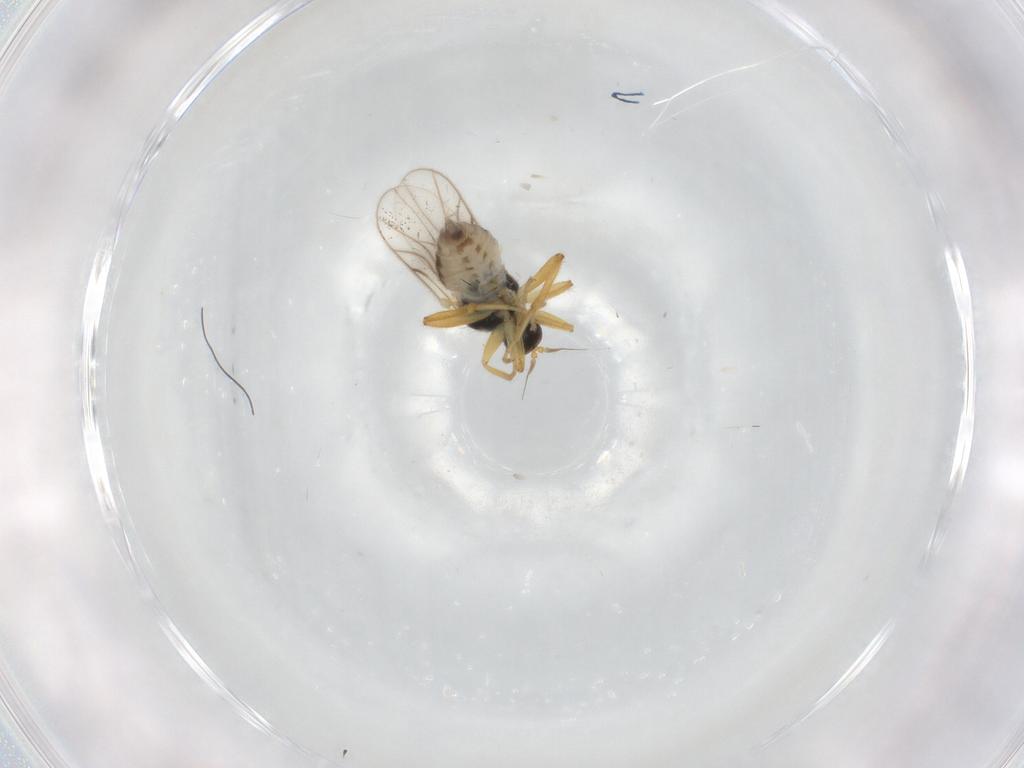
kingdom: Animalia
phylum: Arthropoda
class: Insecta
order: Diptera
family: Hybotidae
